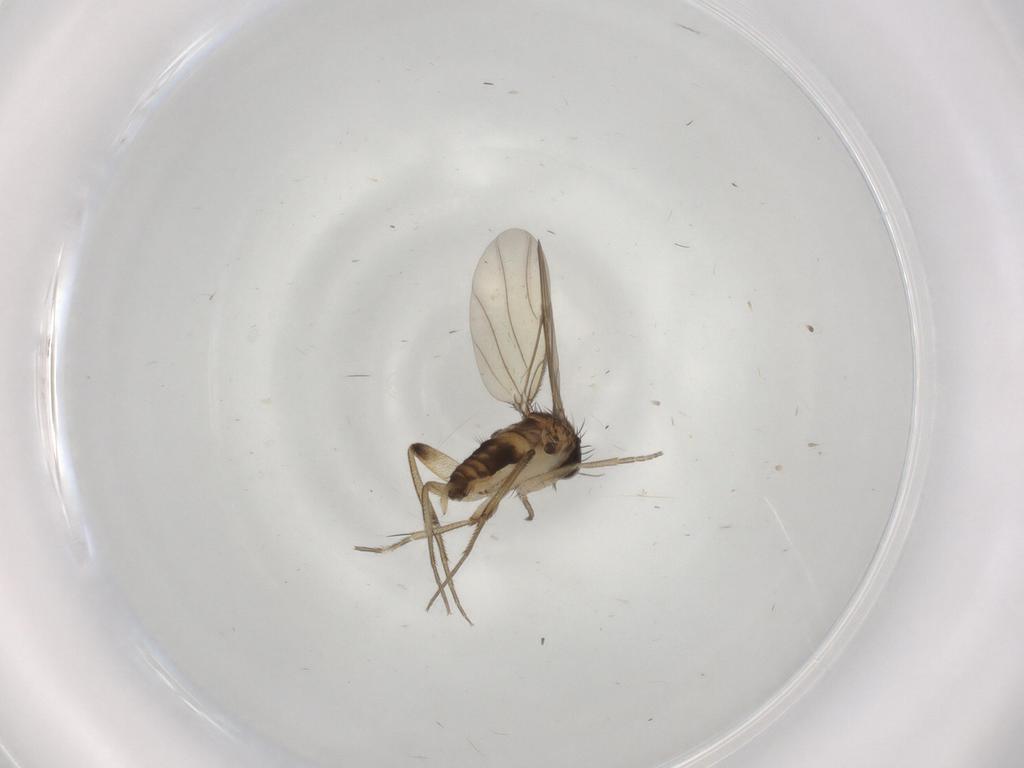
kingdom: Animalia
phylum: Arthropoda
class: Insecta
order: Diptera
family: Phoridae
